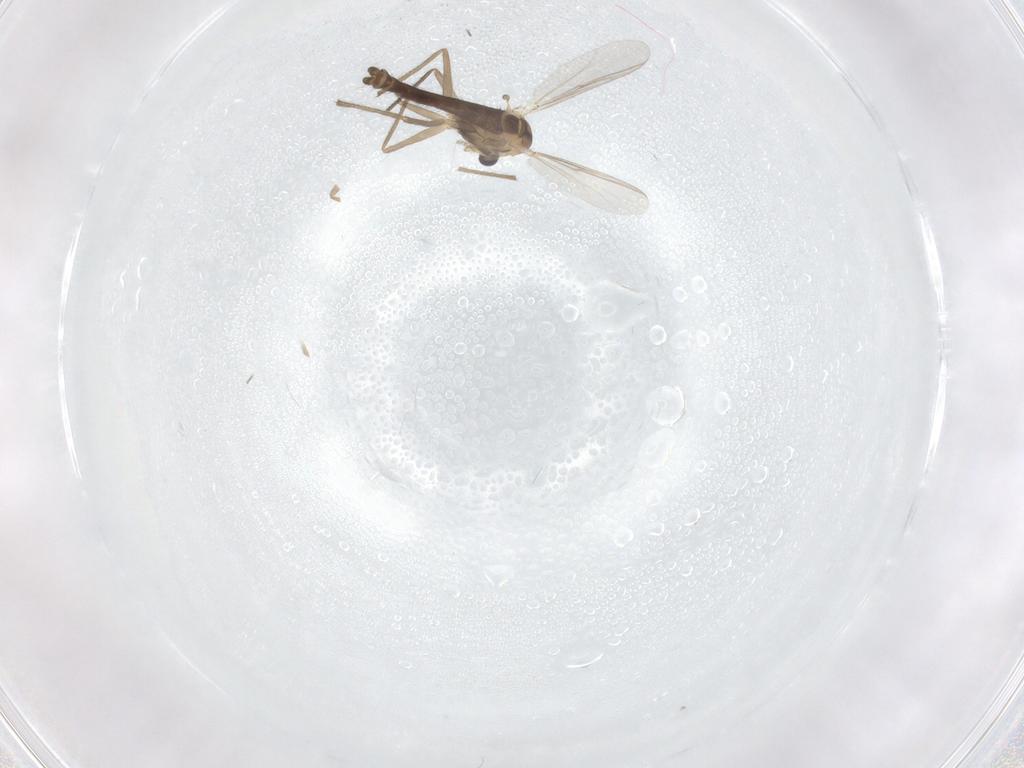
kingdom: Animalia
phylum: Arthropoda
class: Insecta
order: Diptera
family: Chironomidae
